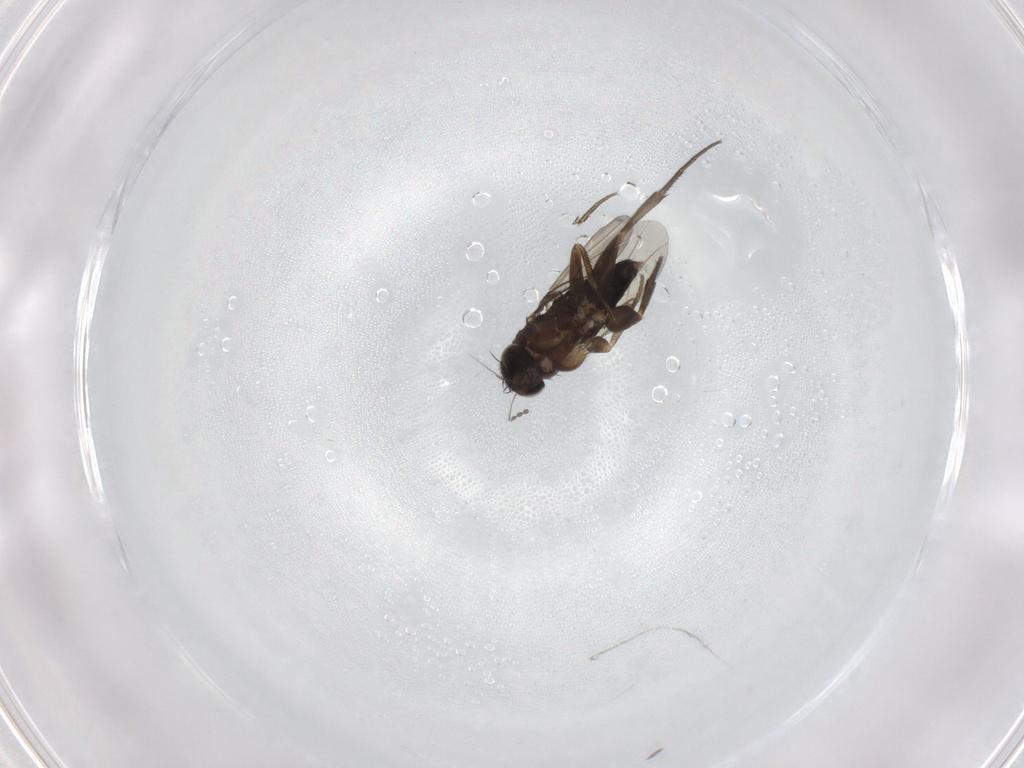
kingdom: Animalia
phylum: Arthropoda
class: Insecta
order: Diptera
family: Phoridae
